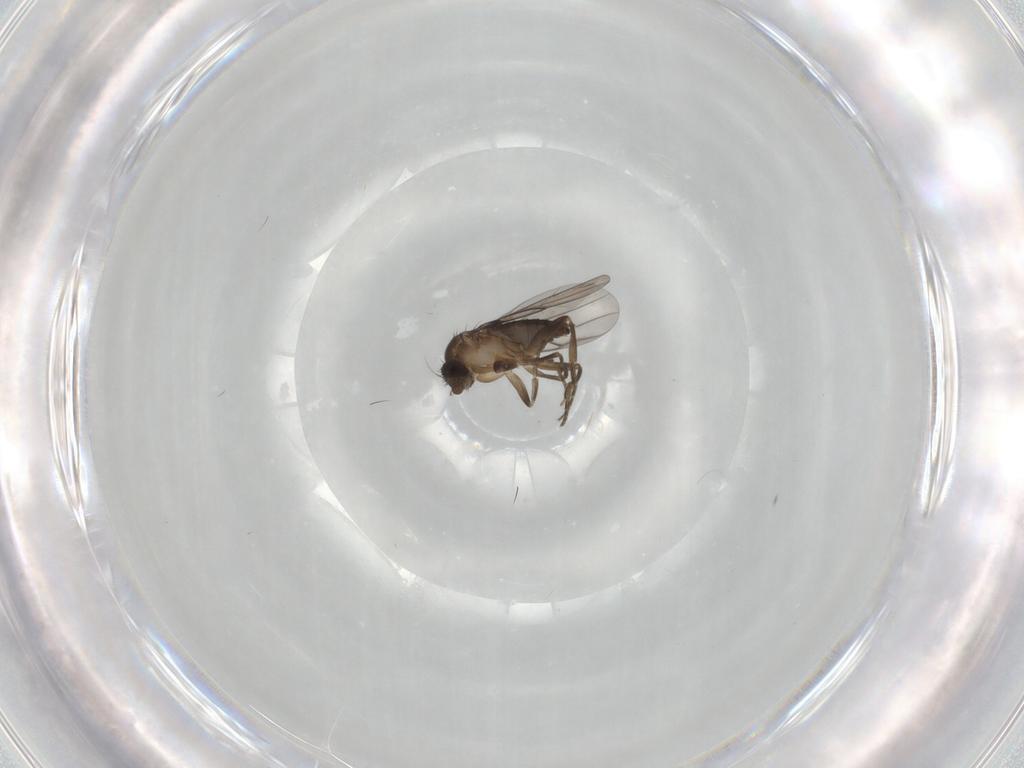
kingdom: Animalia
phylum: Arthropoda
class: Insecta
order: Diptera
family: Phoridae
